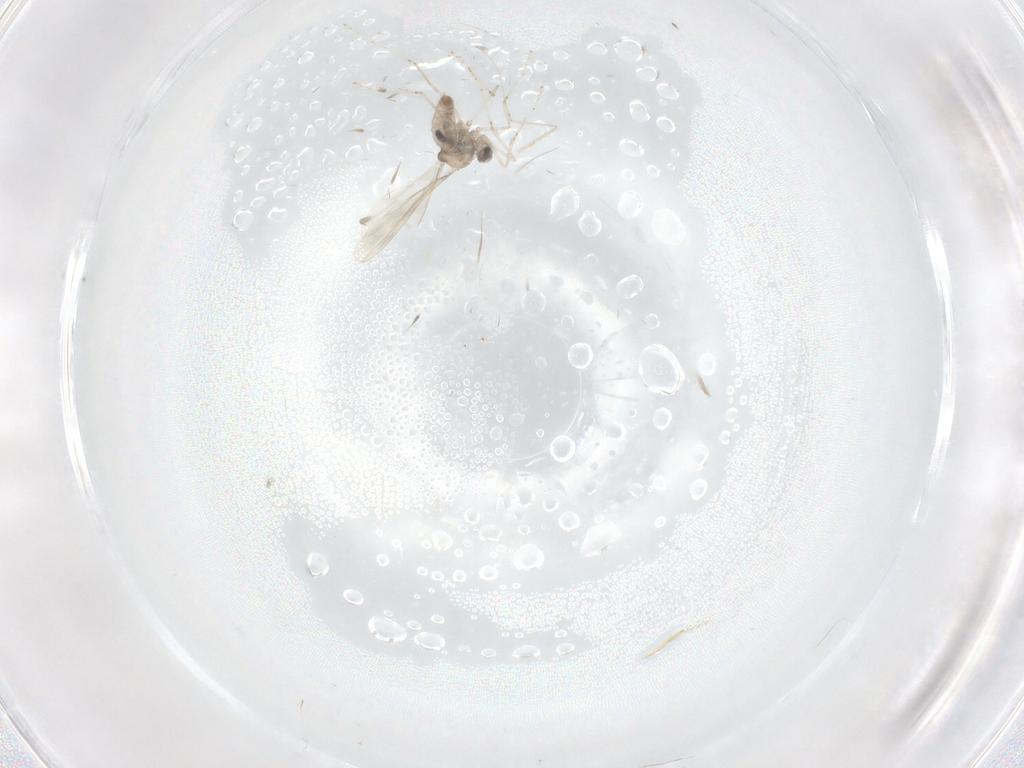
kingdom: Animalia
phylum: Arthropoda
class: Insecta
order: Diptera
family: Cecidomyiidae
